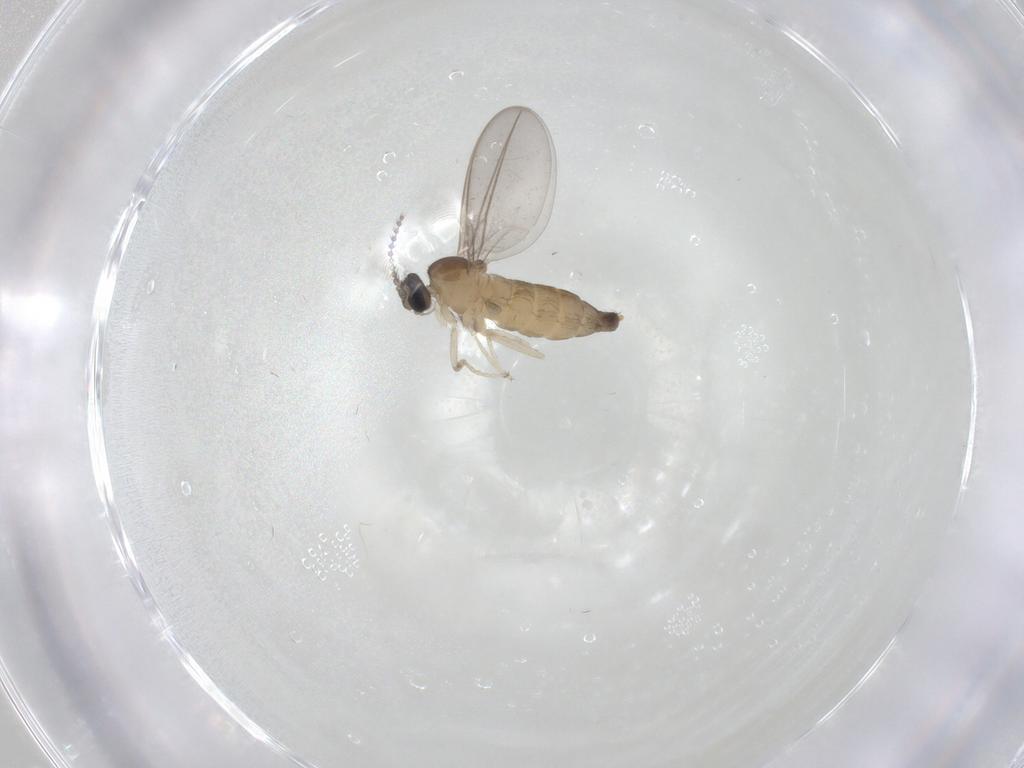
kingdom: Animalia
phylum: Arthropoda
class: Insecta
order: Diptera
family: Cecidomyiidae
